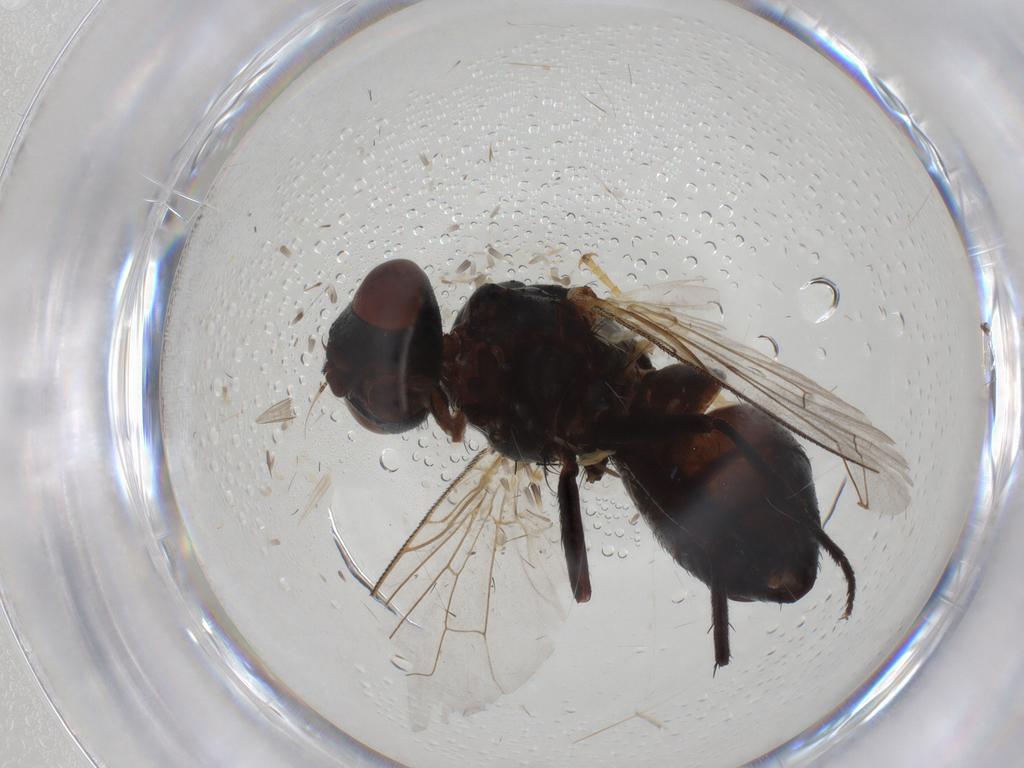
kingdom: Animalia
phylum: Arthropoda
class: Insecta
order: Diptera
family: Sarcophagidae
